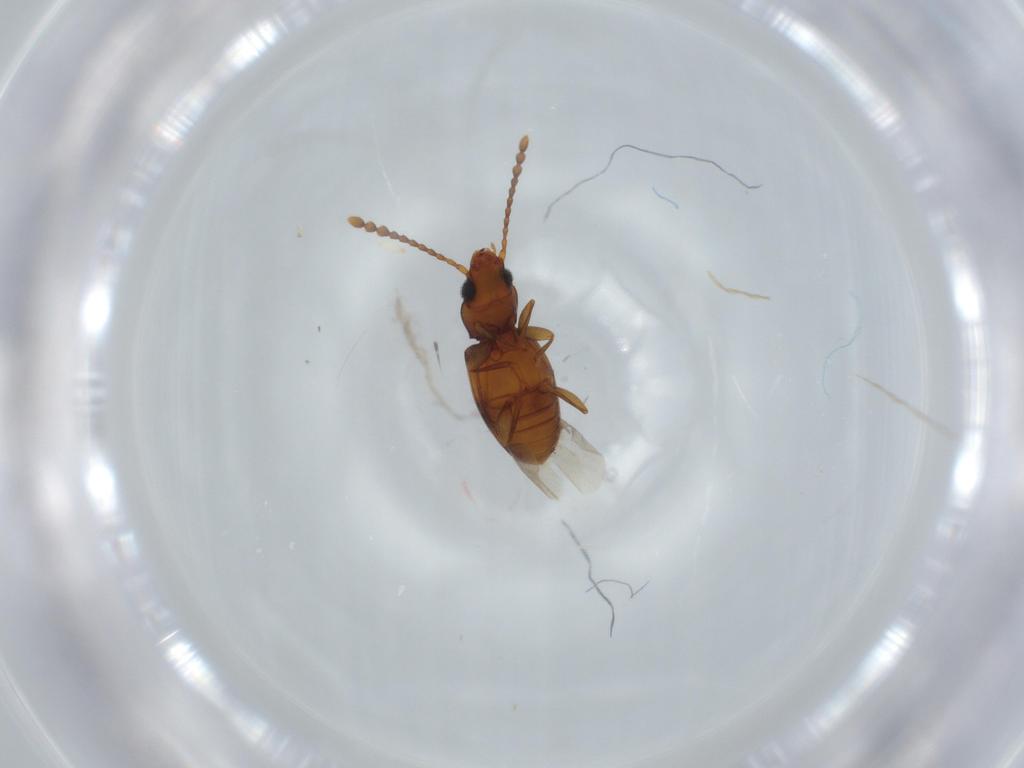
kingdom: Animalia
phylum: Arthropoda
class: Insecta
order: Coleoptera
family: Laemophloeidae
